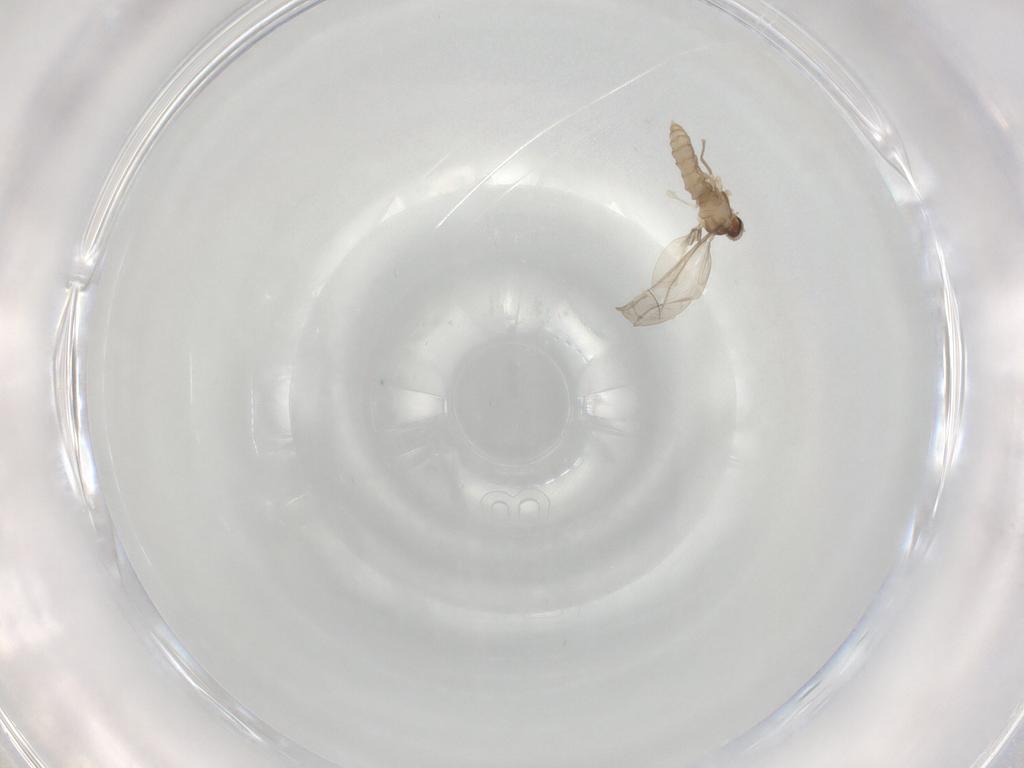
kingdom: Animalia
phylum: Arthropoda
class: Insecta
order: Diptera
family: Cecidomyiidae
